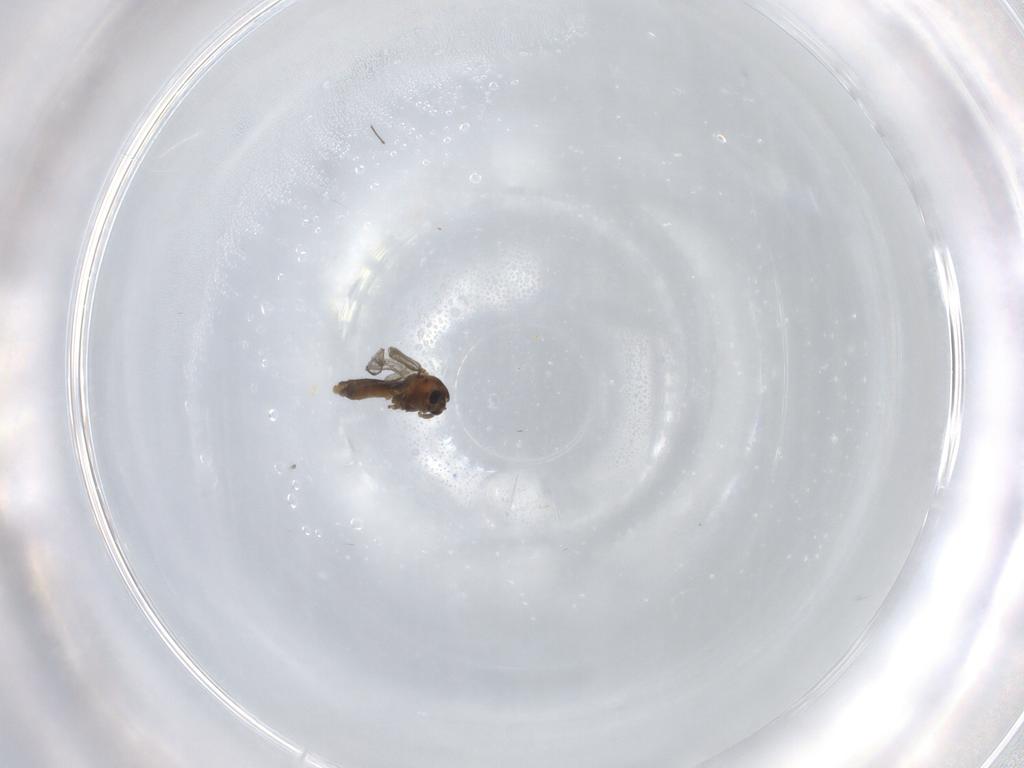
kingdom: Animalia
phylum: Arthropoda
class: Insecta
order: Diptera
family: Chironomidae
